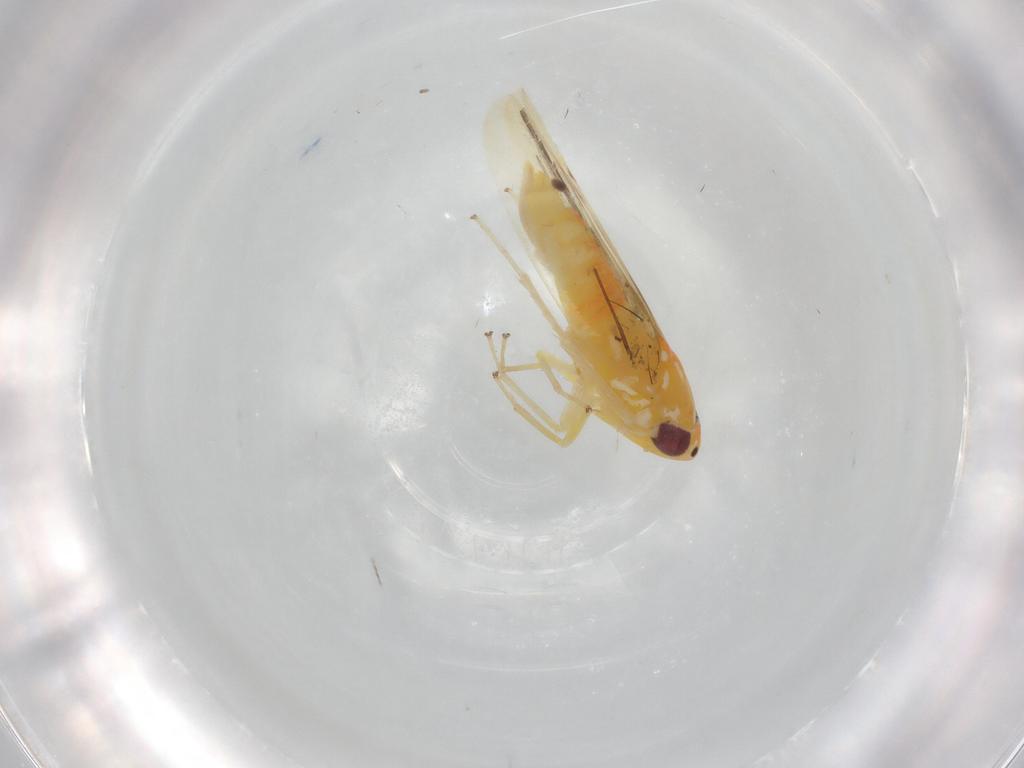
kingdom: Animalia
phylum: Arthropoda
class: Insecta
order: Hemiptera
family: Cicadellidae
